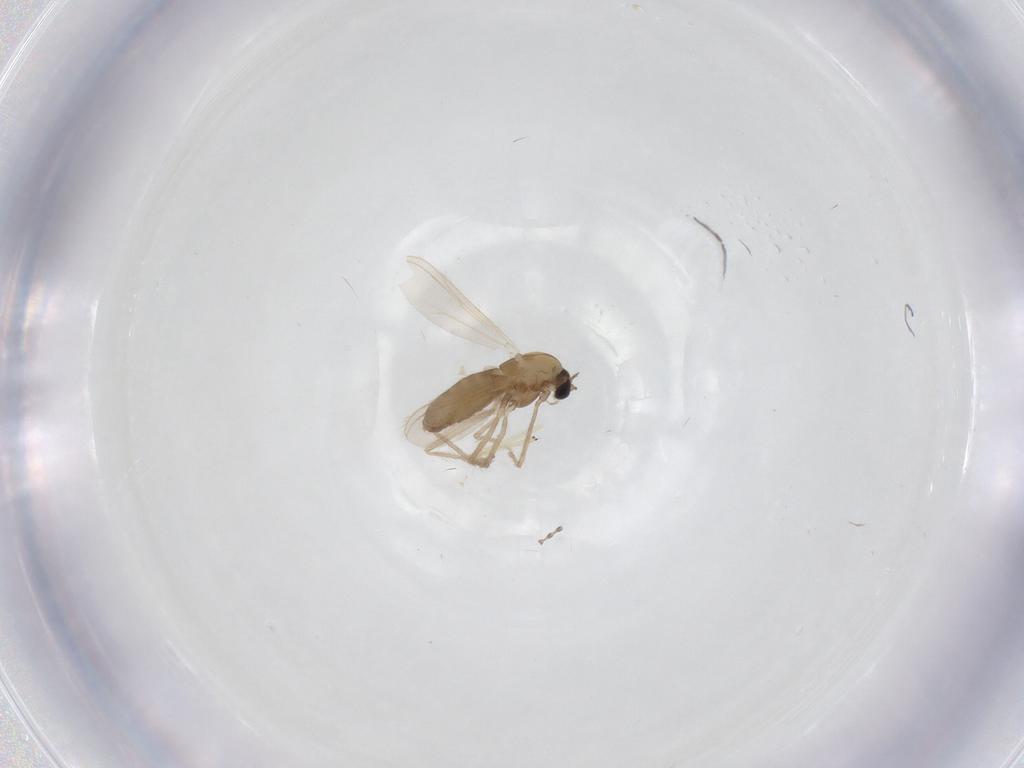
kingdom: Animalia
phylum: Arthropoda
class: Insecta
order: Diptera
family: Chironomidae
